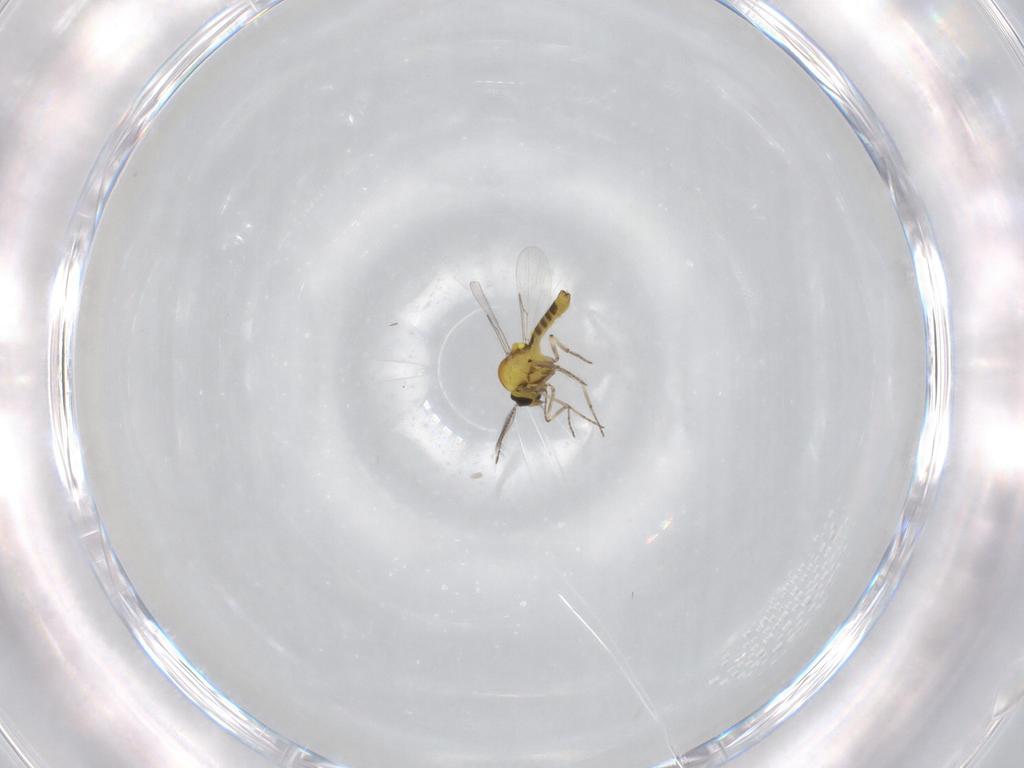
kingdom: Animalia
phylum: Arthropoda
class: Insecta
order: Diptera
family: Ceratopogonidae
